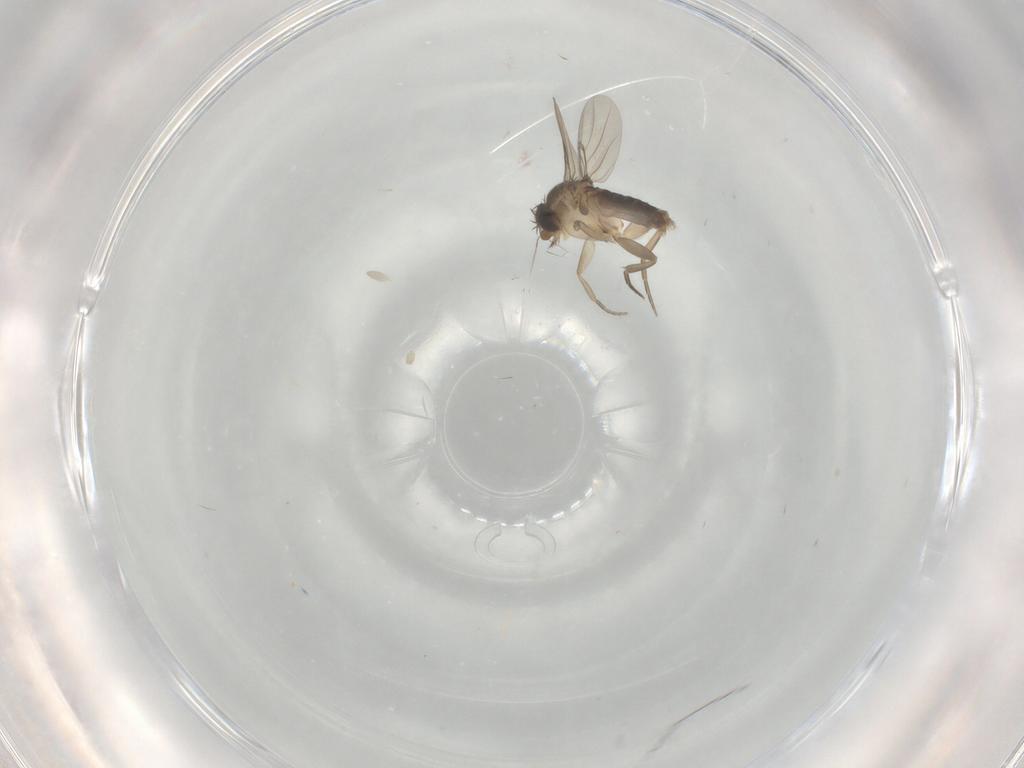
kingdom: Animalia
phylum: Arthropoda
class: Insecta
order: Diptera
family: Phoridae
